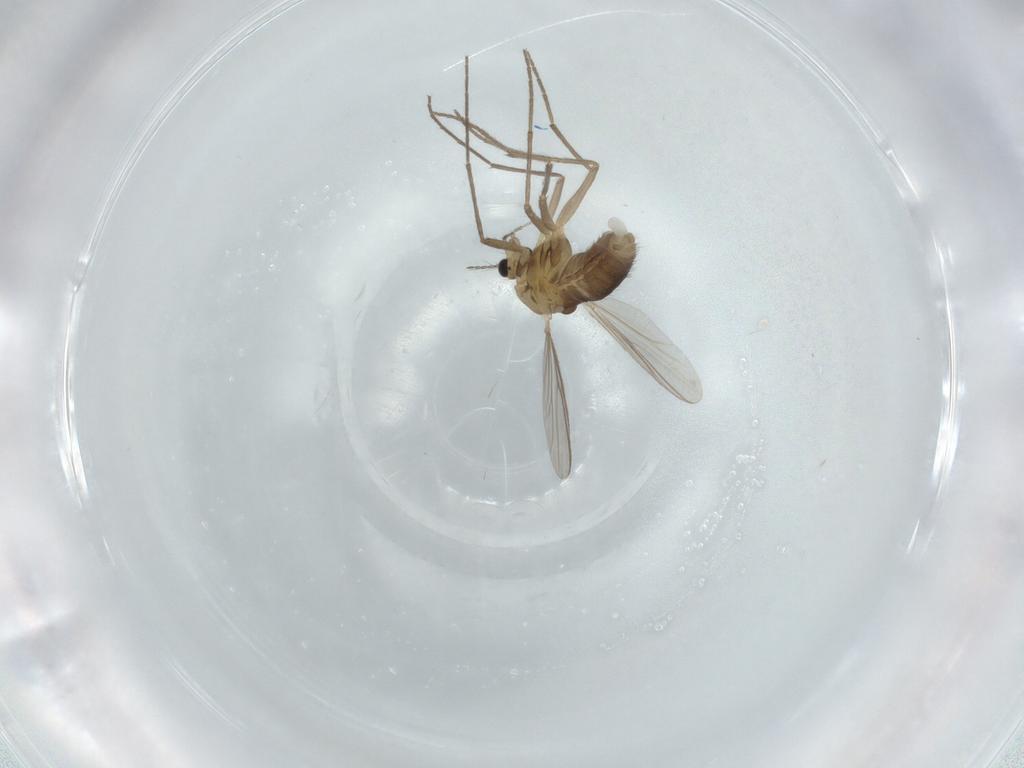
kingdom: Animalia
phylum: Arthropoda
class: Insecta
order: Diptera
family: Chironomidae
